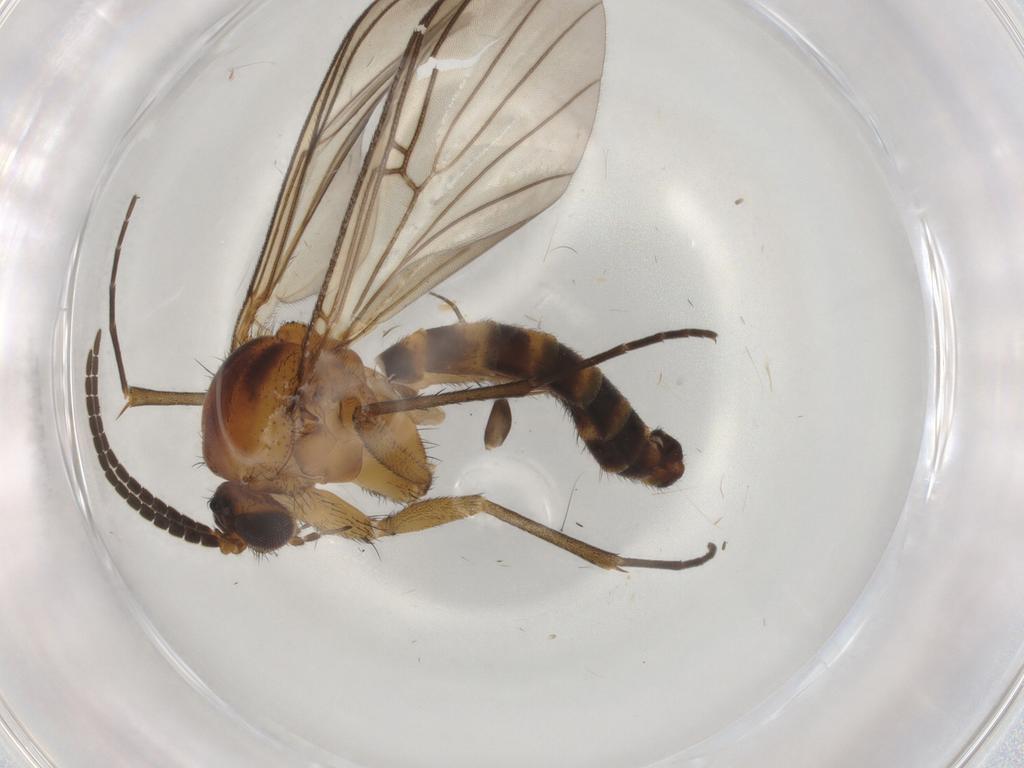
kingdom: Animalia
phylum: Arthropoda
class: Insecta
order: Diptera
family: Mycetophilidae
